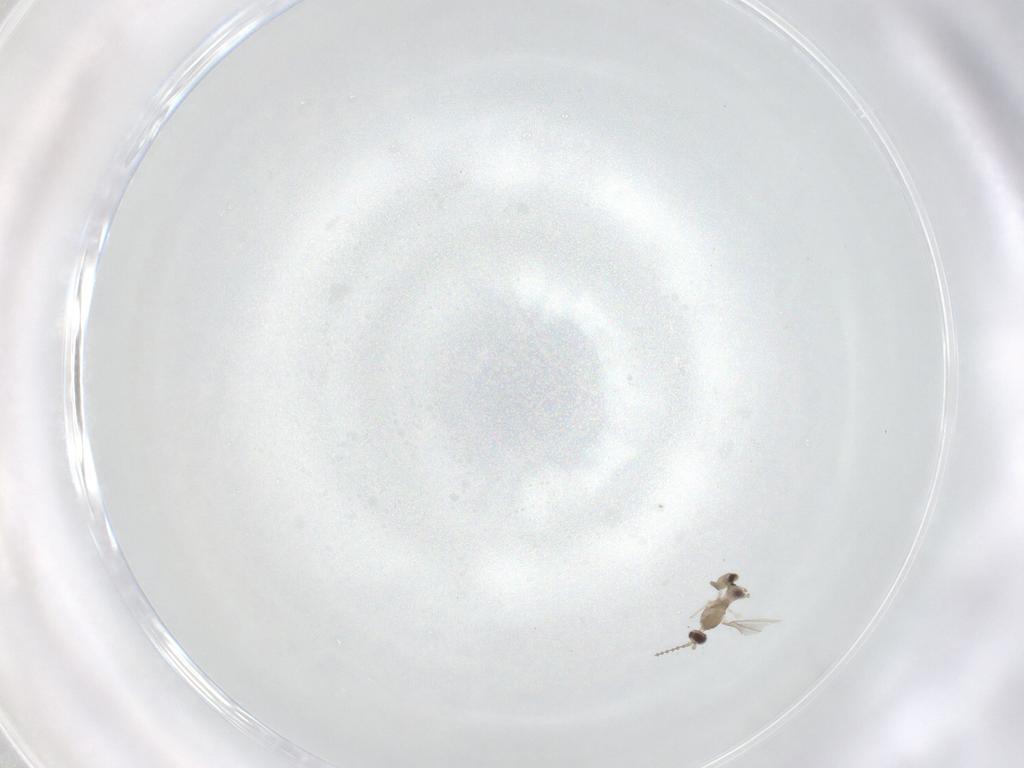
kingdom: Animalia
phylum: Arthropoda
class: Insecta
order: Diptera
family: Cecidomyiidae
